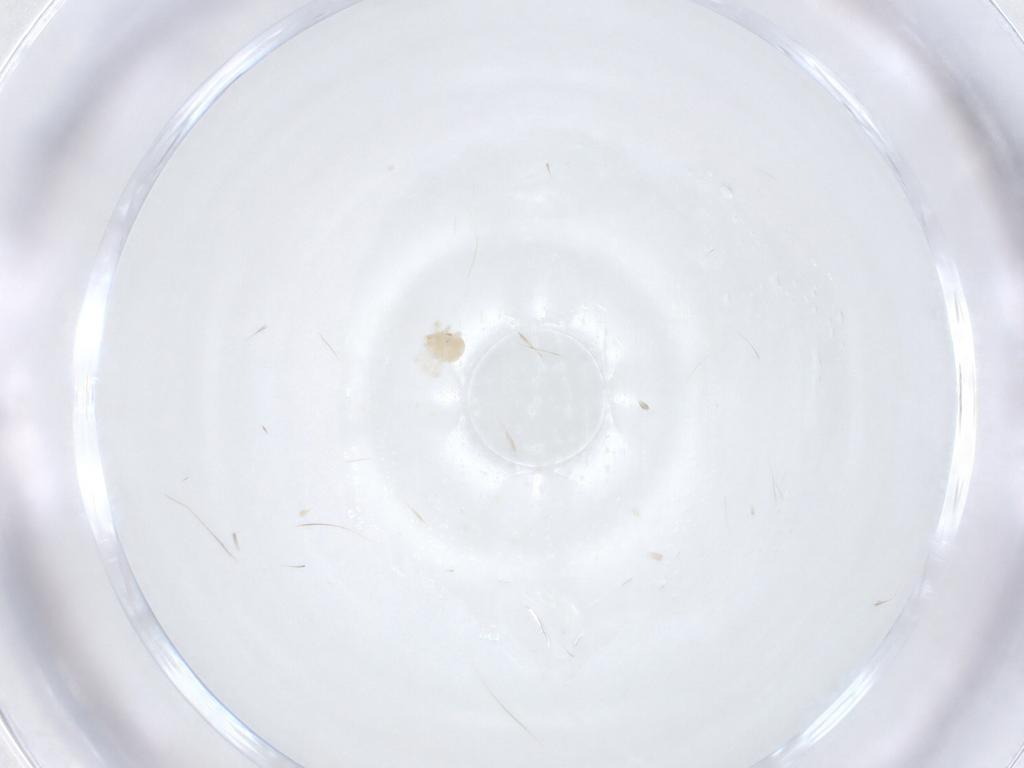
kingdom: Animalia
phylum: Arthropoda
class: Arachnida
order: Trombidiformes
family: Anystidae
